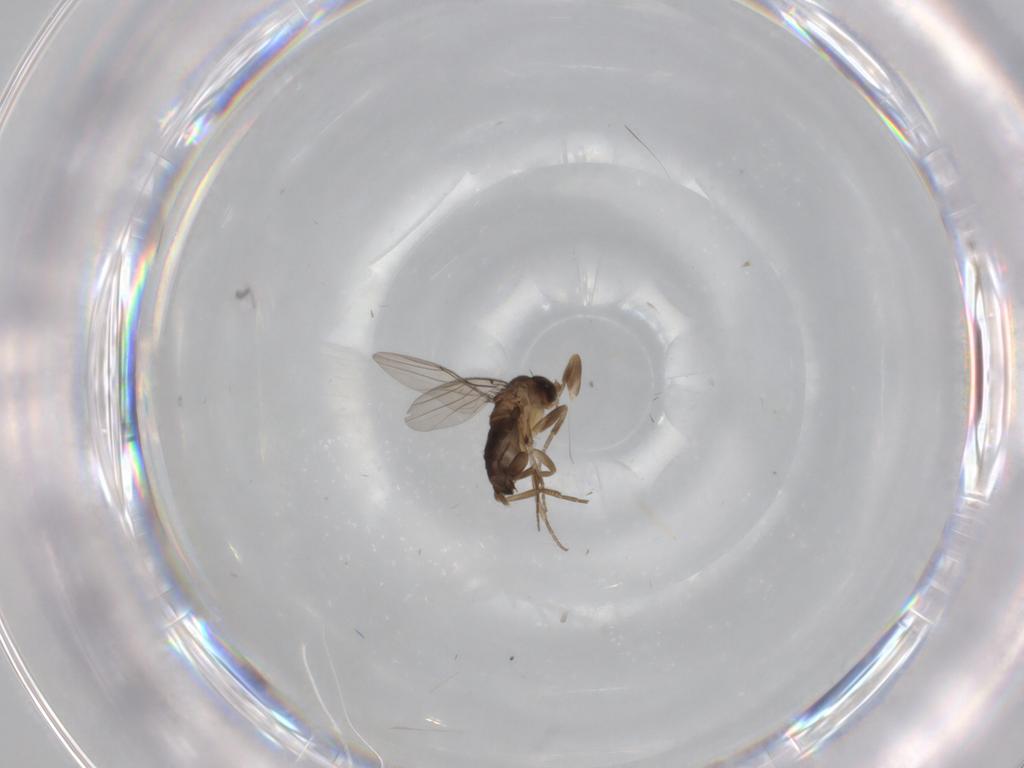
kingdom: Animalia
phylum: Arthropoda
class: Insecta
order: Diptera
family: Phoridae
